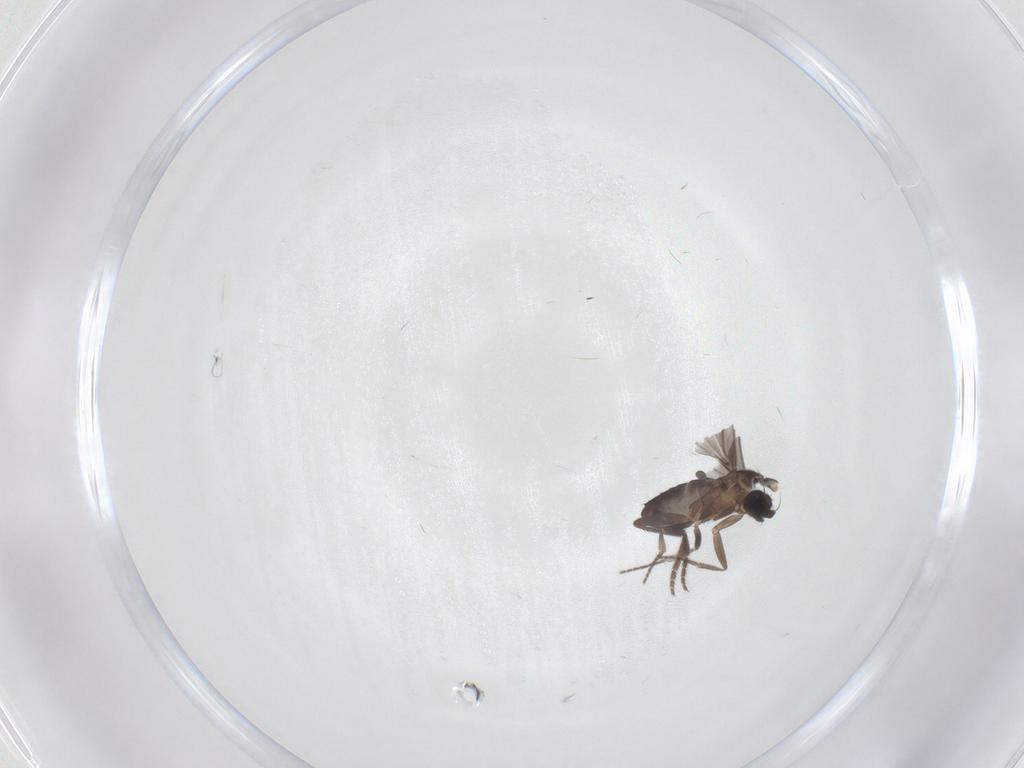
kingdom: Animalia
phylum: Arthropoda
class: Insecta
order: Diptera
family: Phoridae
